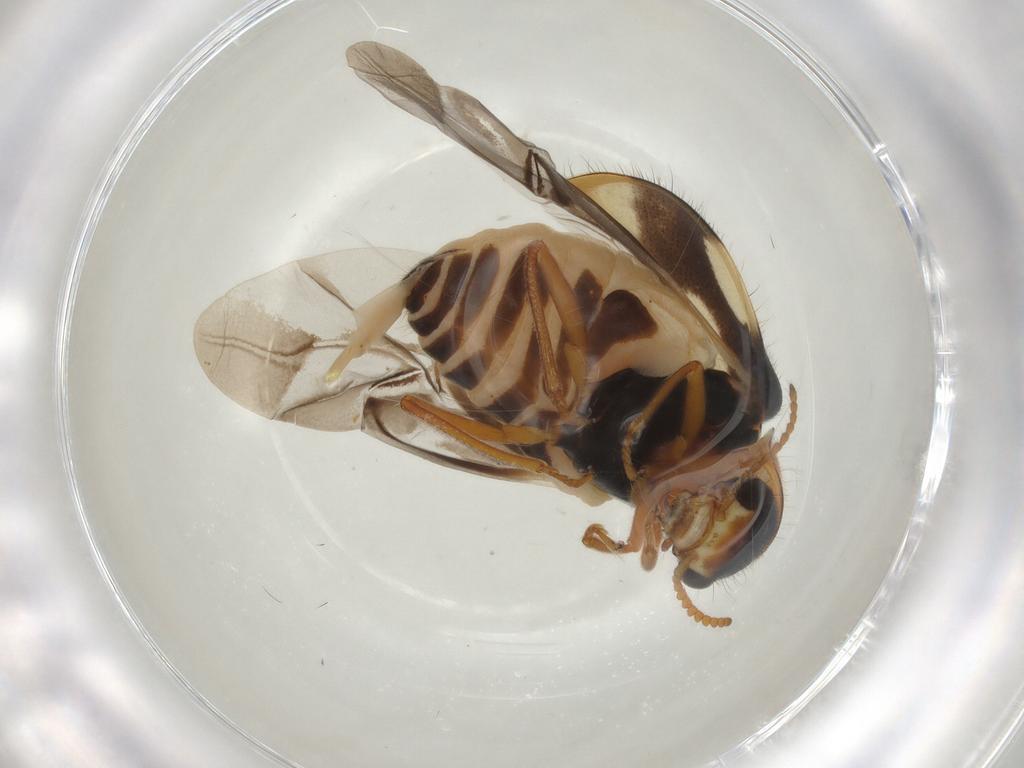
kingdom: Animalia
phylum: Arthropoda
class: Insecta
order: Coleoptera
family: Melyridae
